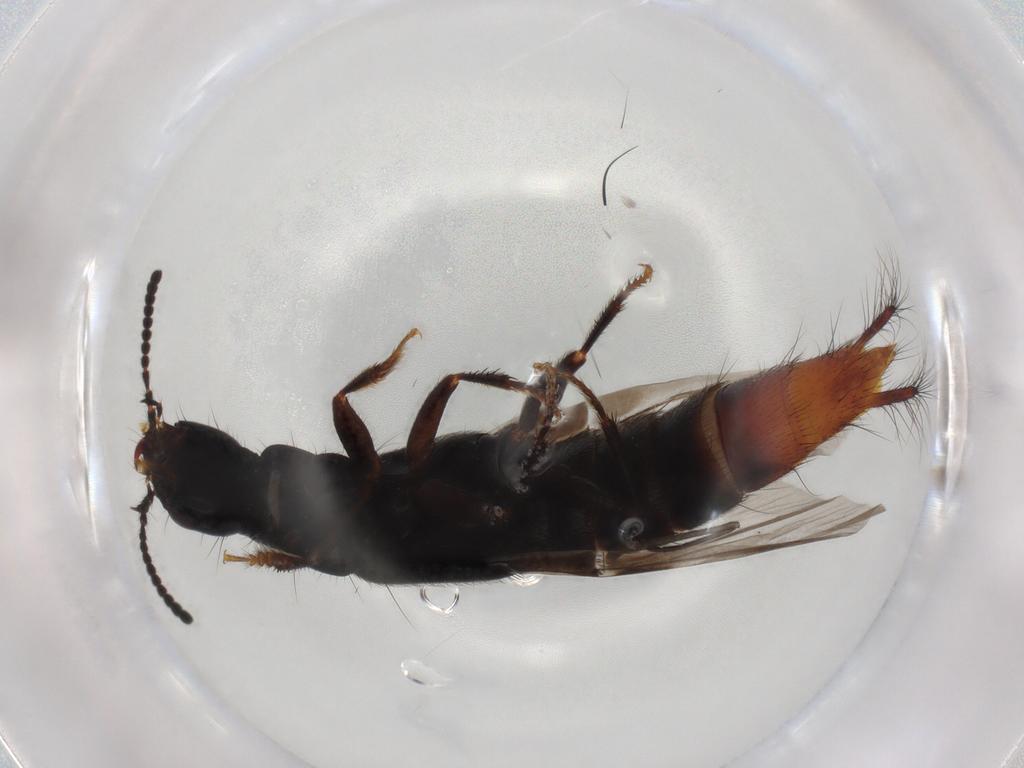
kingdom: Animalia
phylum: Arthropoda
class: Insecta
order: Coleoptera
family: Staphylinidae
